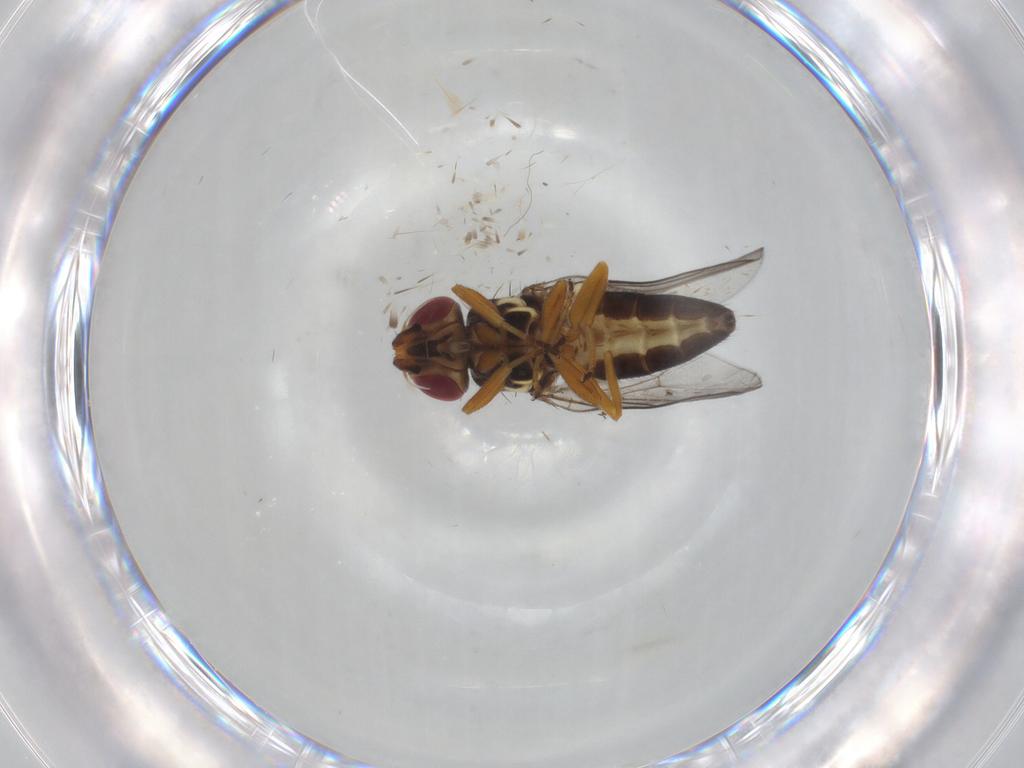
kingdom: Animalia
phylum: Arthropoda
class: Insecta
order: Diptera
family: Chloropidae
